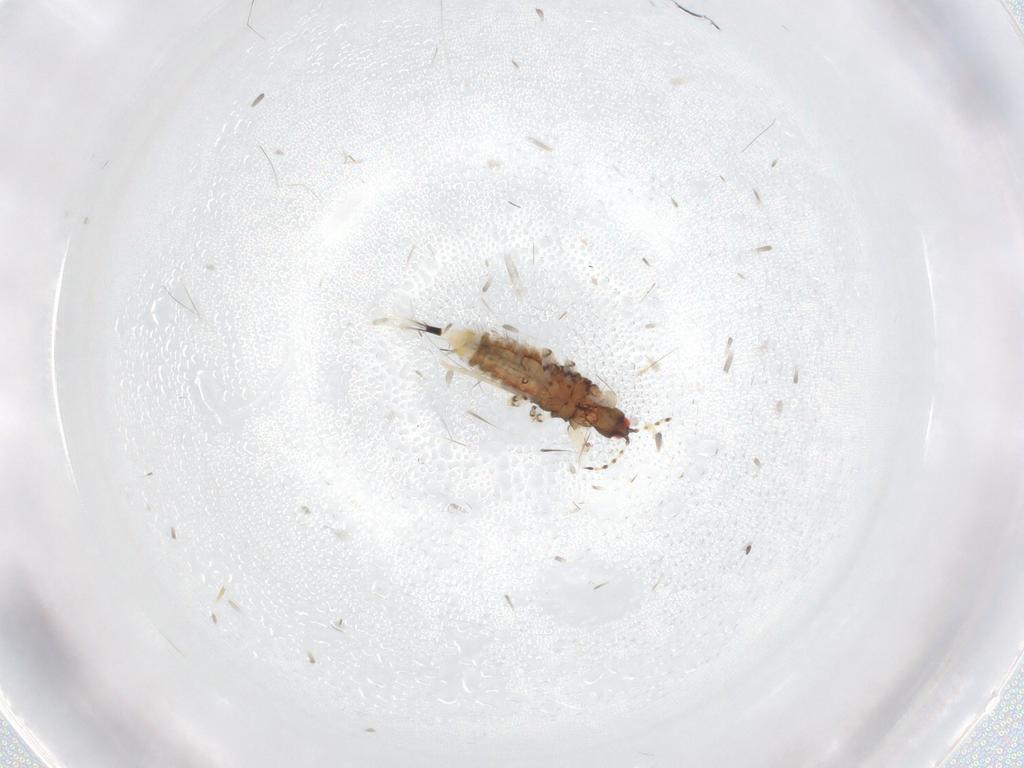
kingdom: Animalia
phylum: Arthropoda
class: Insecta
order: Thysanoptera
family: Phlaeothripidae
